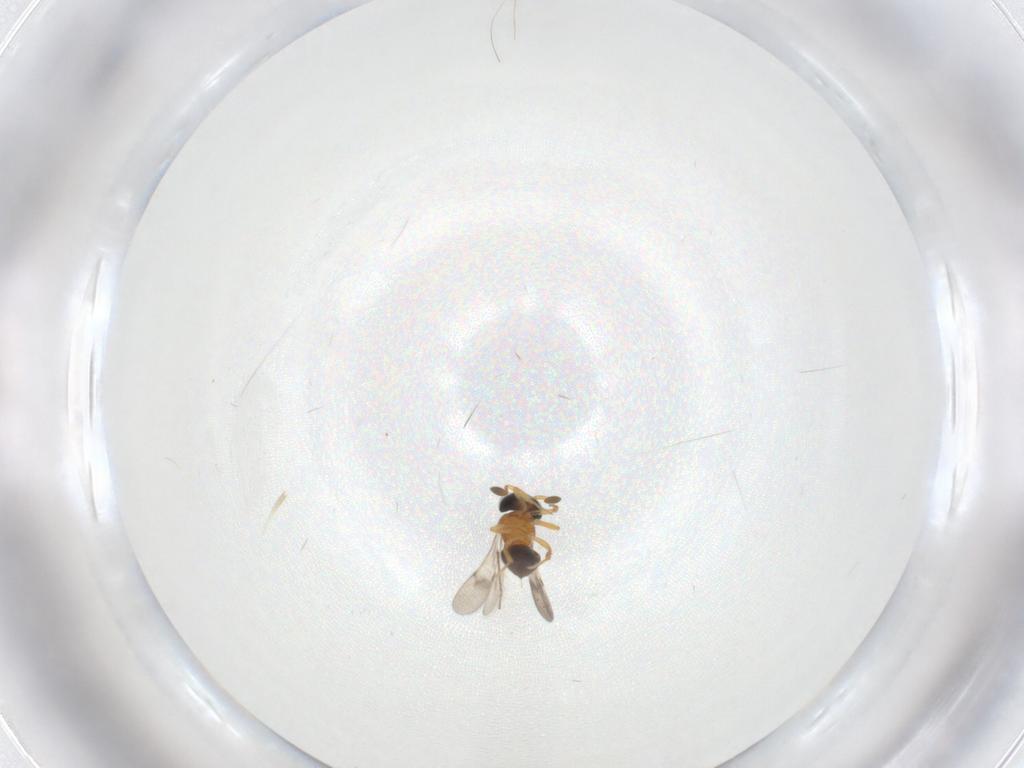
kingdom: Animalia
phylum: Arthropoda
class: Insecta
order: Hymenoptera
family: Scelionidae
